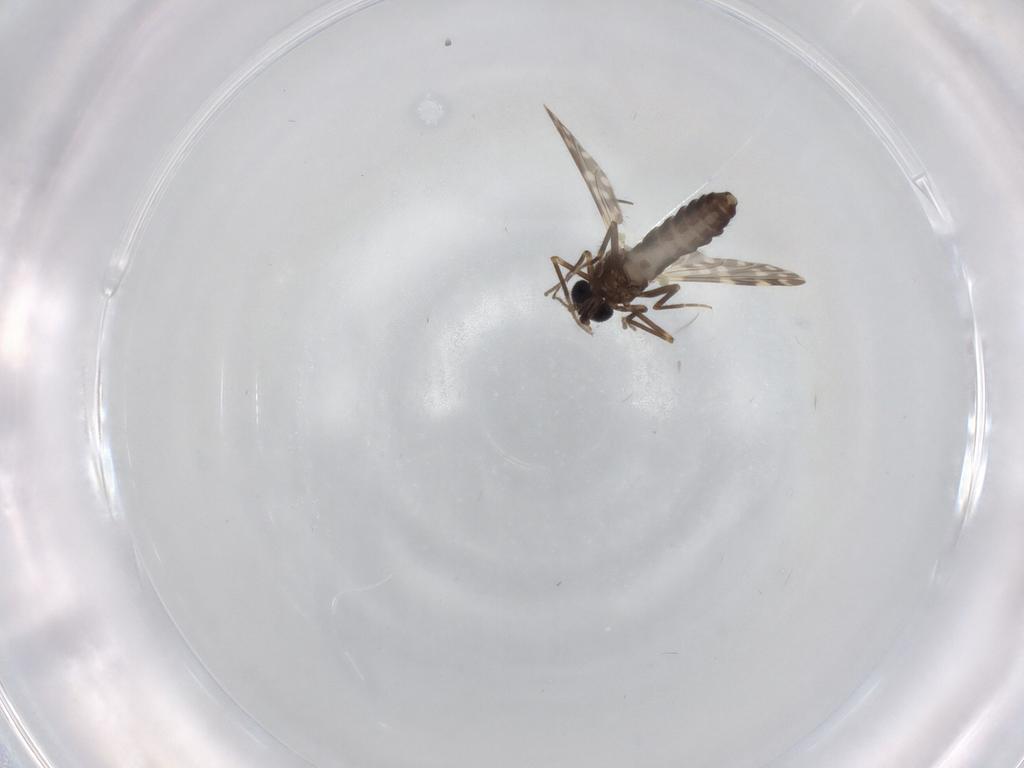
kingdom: Animalia
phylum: Arthropoda
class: Insecta
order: Diptera
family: Ceratopogonidae
